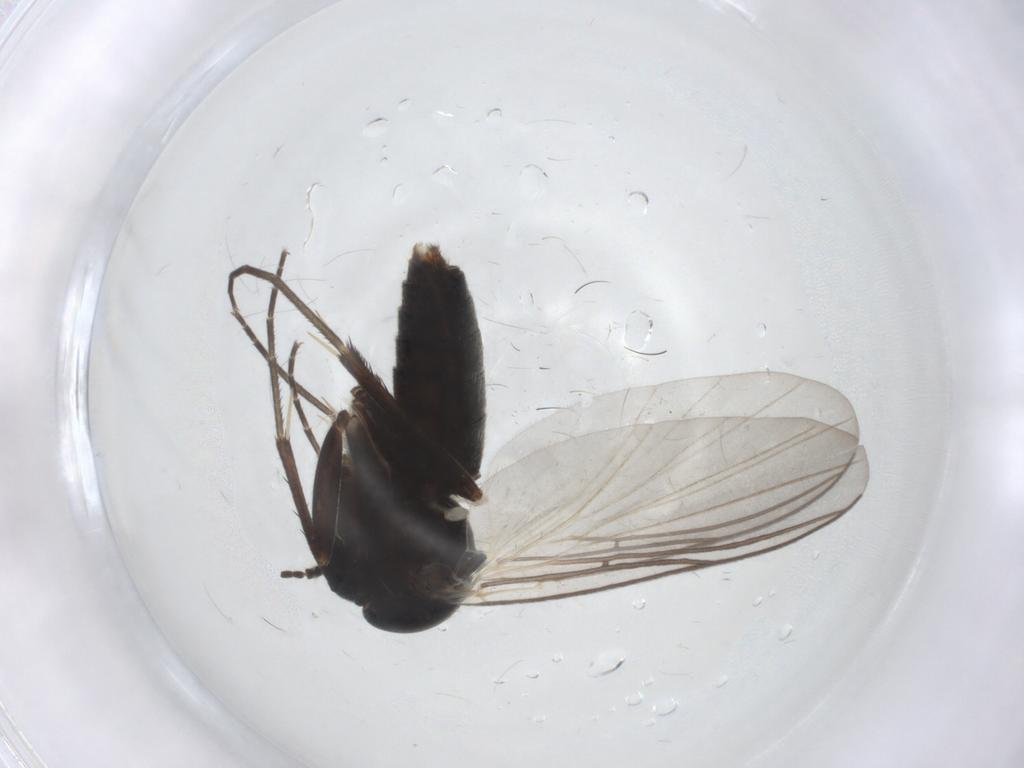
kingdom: Animalia
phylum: Arthropoda
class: Insecta
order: Diptera
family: Mycetophilidae
